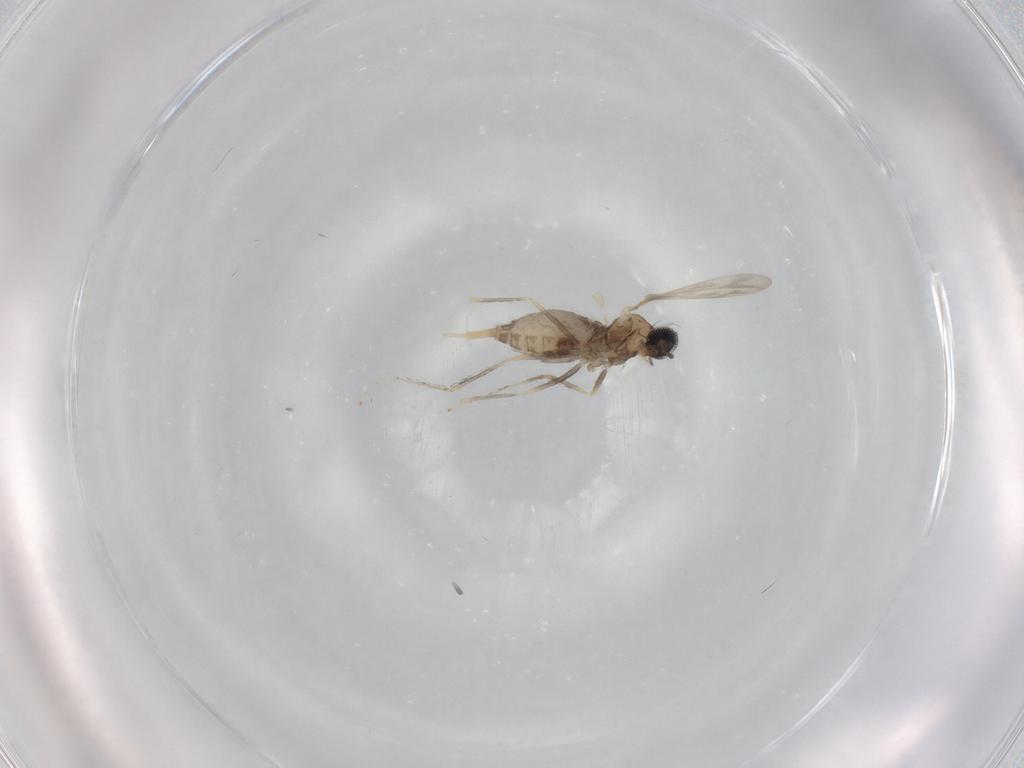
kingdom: Animalia
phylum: Arthropoda
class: Insecta
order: Diptera
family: Cecidomyiidae
